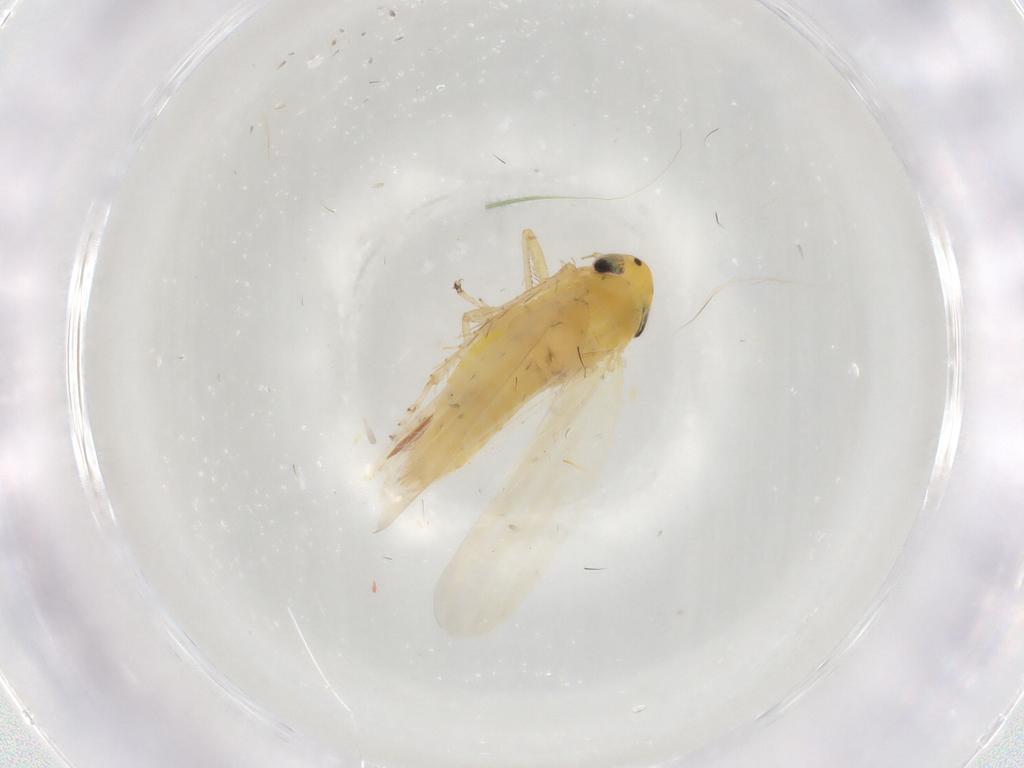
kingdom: Animalia
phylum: Arthropoda
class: Insecta
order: Hemiptera
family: Cicadellidae
